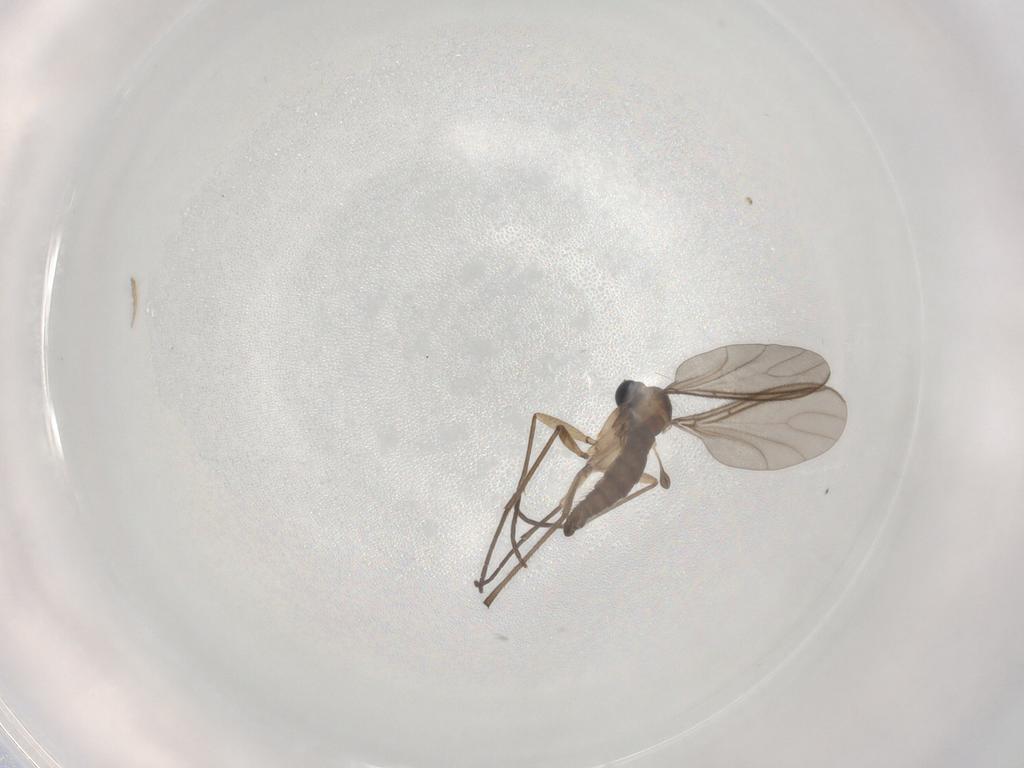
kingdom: Animalia
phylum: Arthropoda
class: Insecta
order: Diptera
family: Sciaridae
